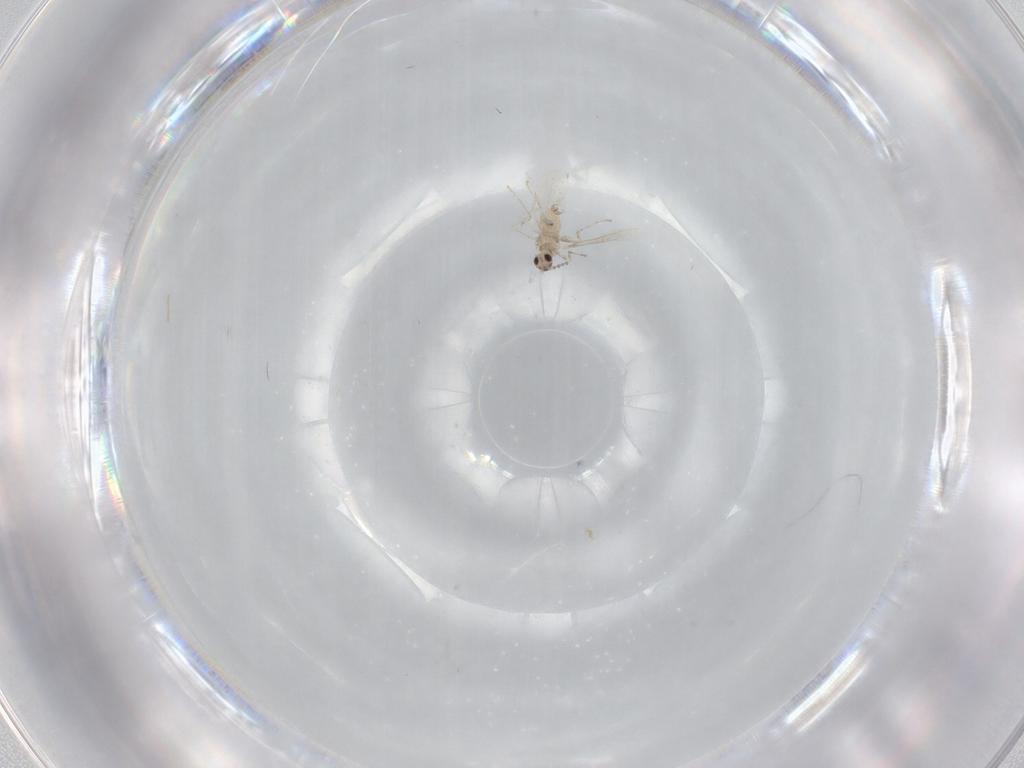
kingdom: Animalia
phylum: Arthropoda
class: Insecta
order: Diptera
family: Cecidomyiidae
